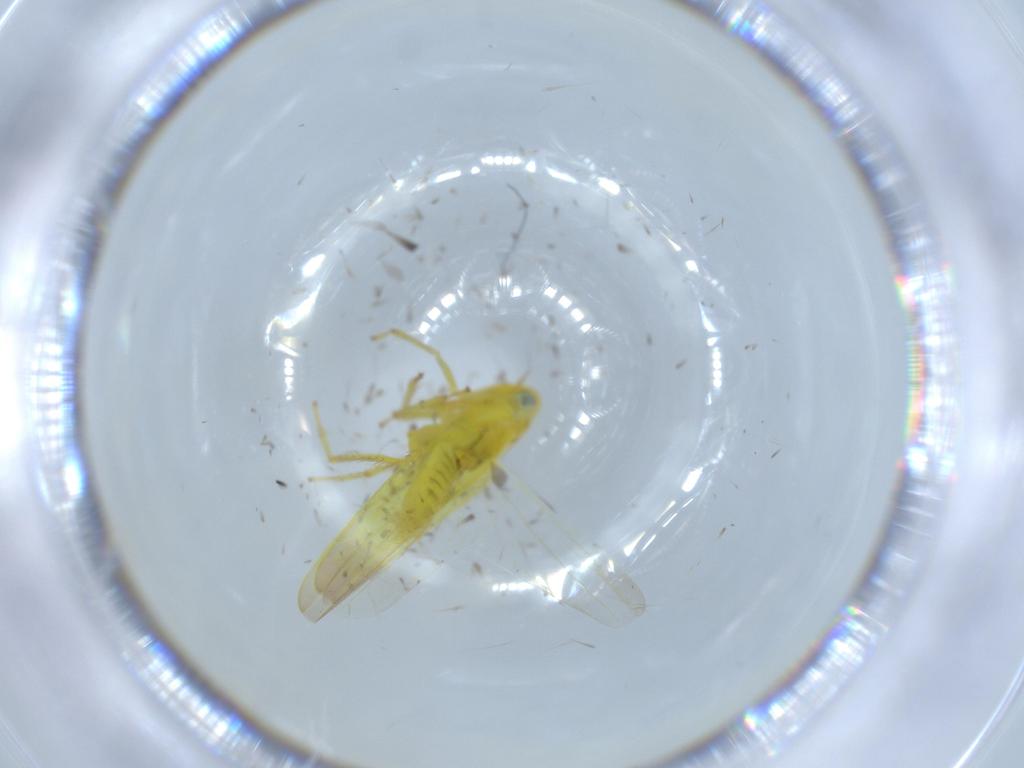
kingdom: Animalia
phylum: Arthropoda
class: Insecta
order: Hemiptera
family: Cicadellidae
